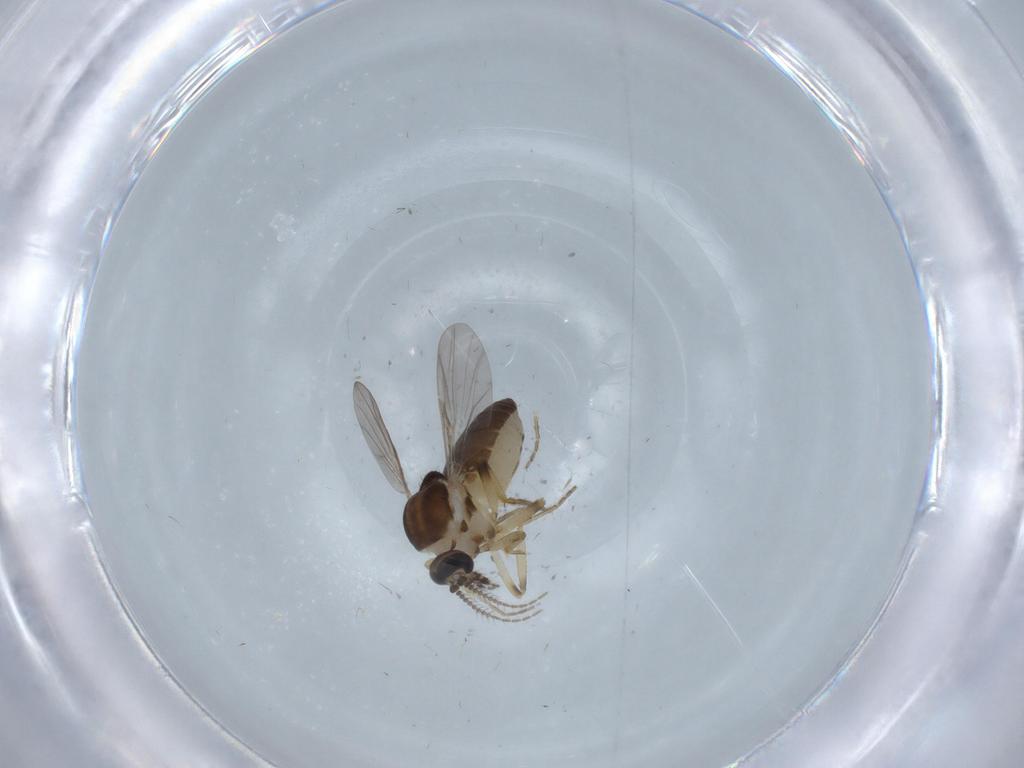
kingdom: Animalia
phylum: Arthropoda
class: Insecta
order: Diptera
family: Ceratopogonidae
